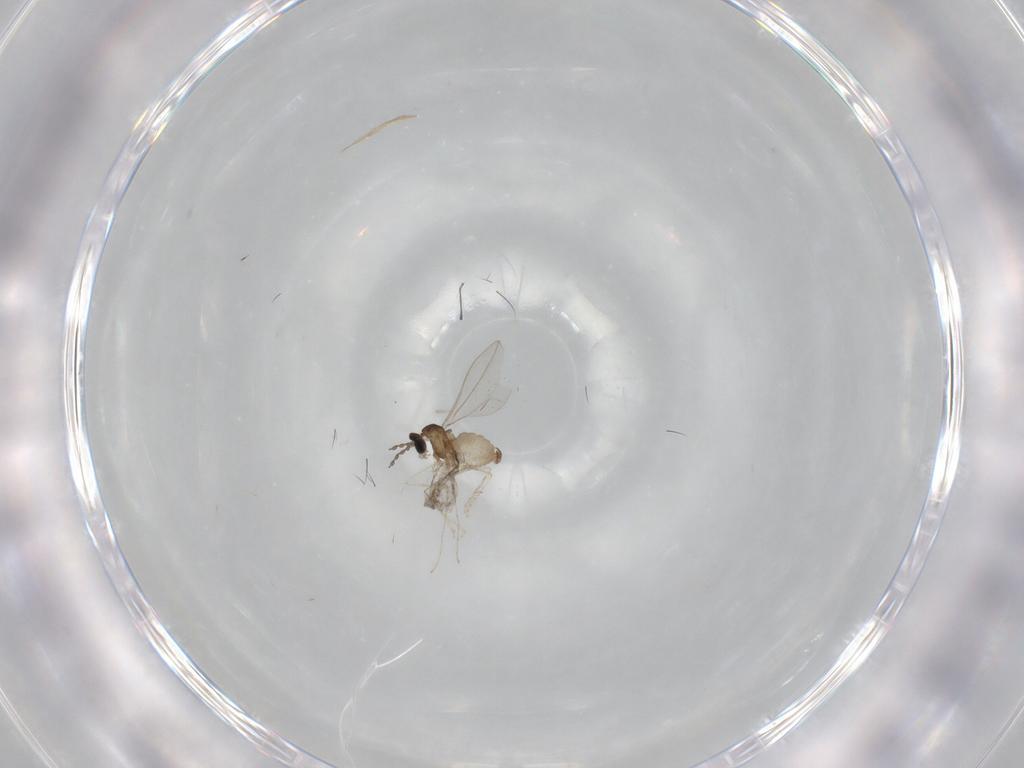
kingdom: Animalia
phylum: Arthropoda
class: Insecta
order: Diptera
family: Cecidomyiidae
